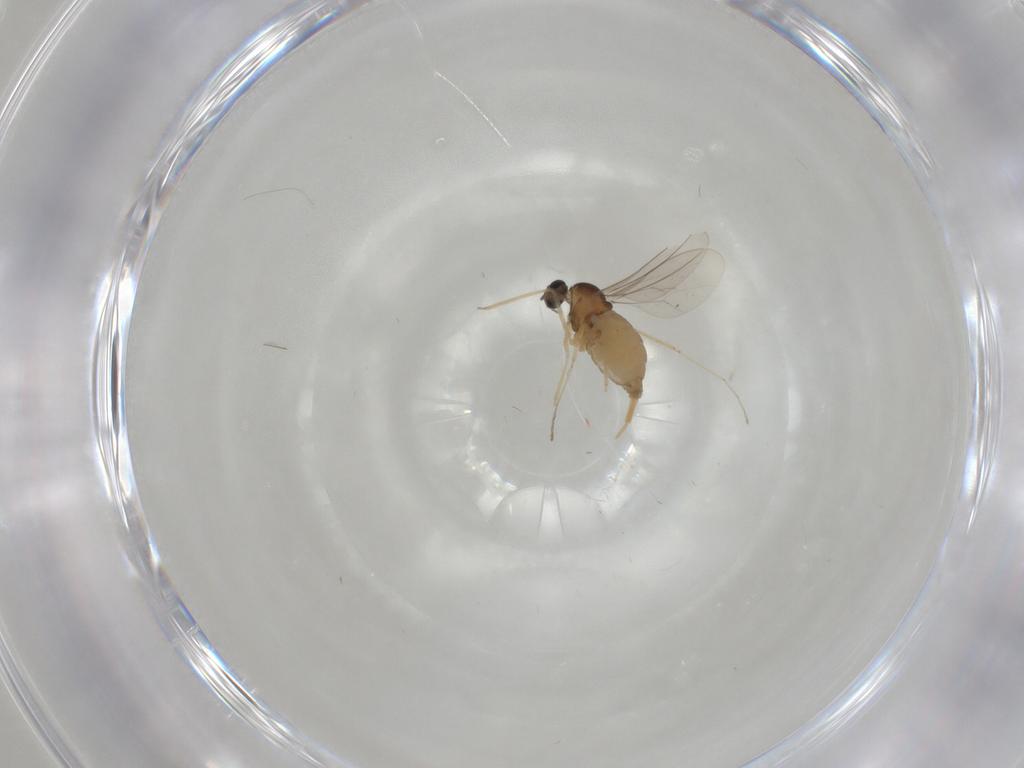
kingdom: Animalia
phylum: Arthropoda
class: Insecta
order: Diptera
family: Cecidomyiidae
